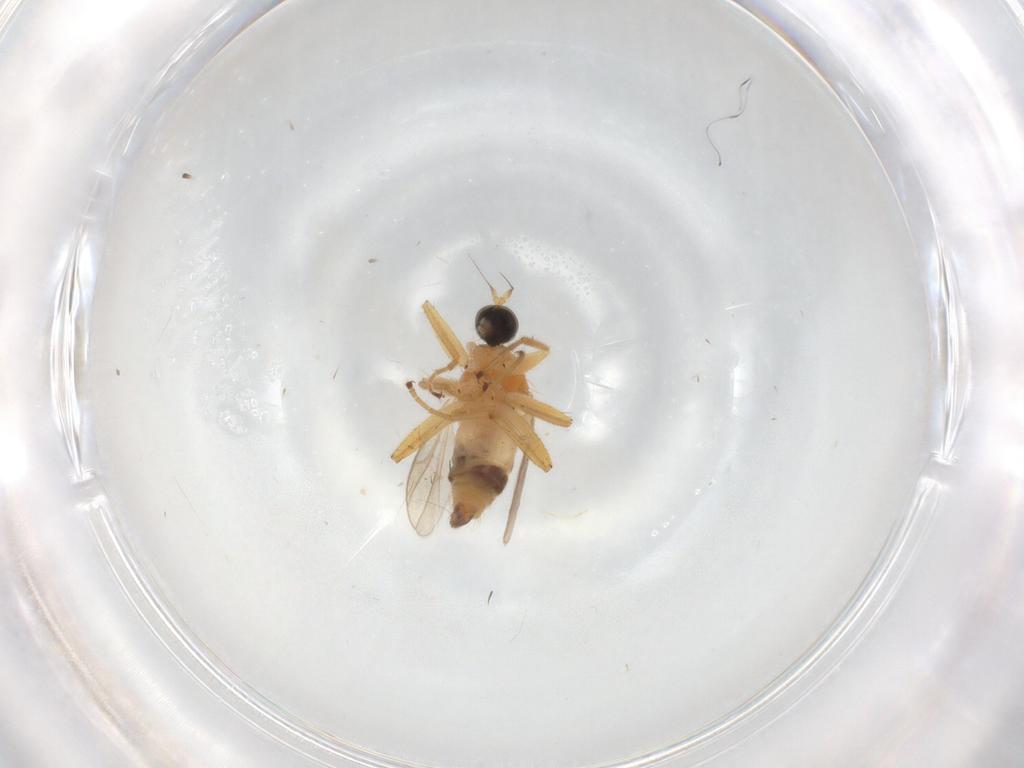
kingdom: Animalia
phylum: Arthropoda
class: Insecta
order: Diptera
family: Hybotidae
